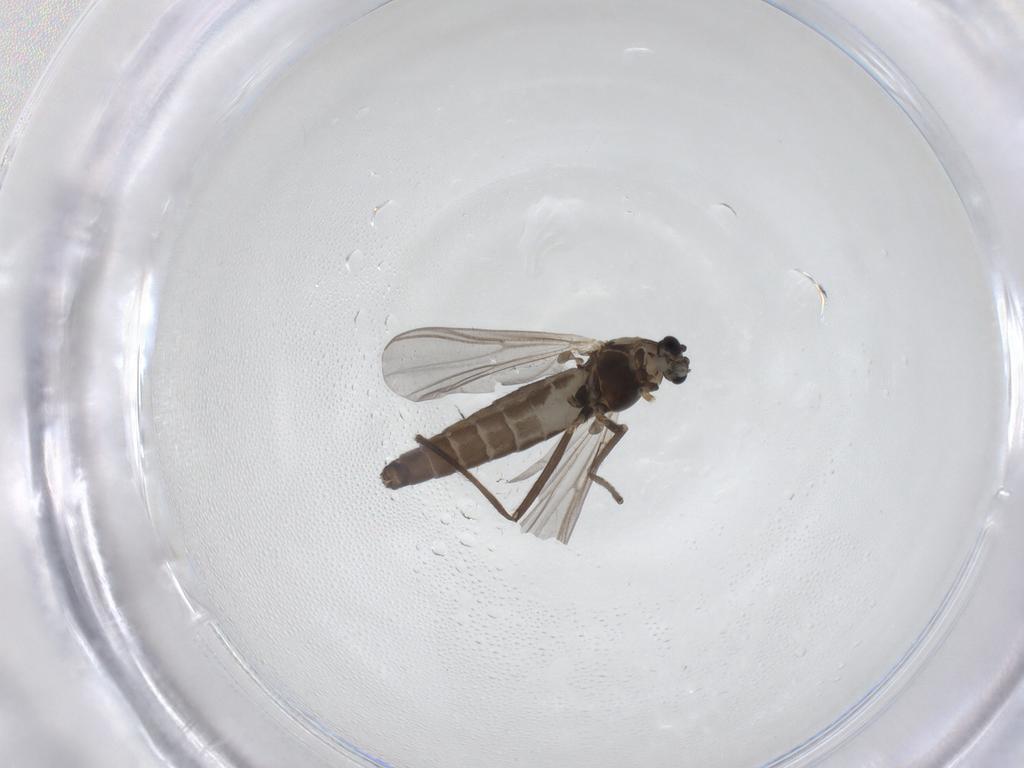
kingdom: Animalia
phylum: Arthropoda
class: Insecta
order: Diptera
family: Chironomidae
